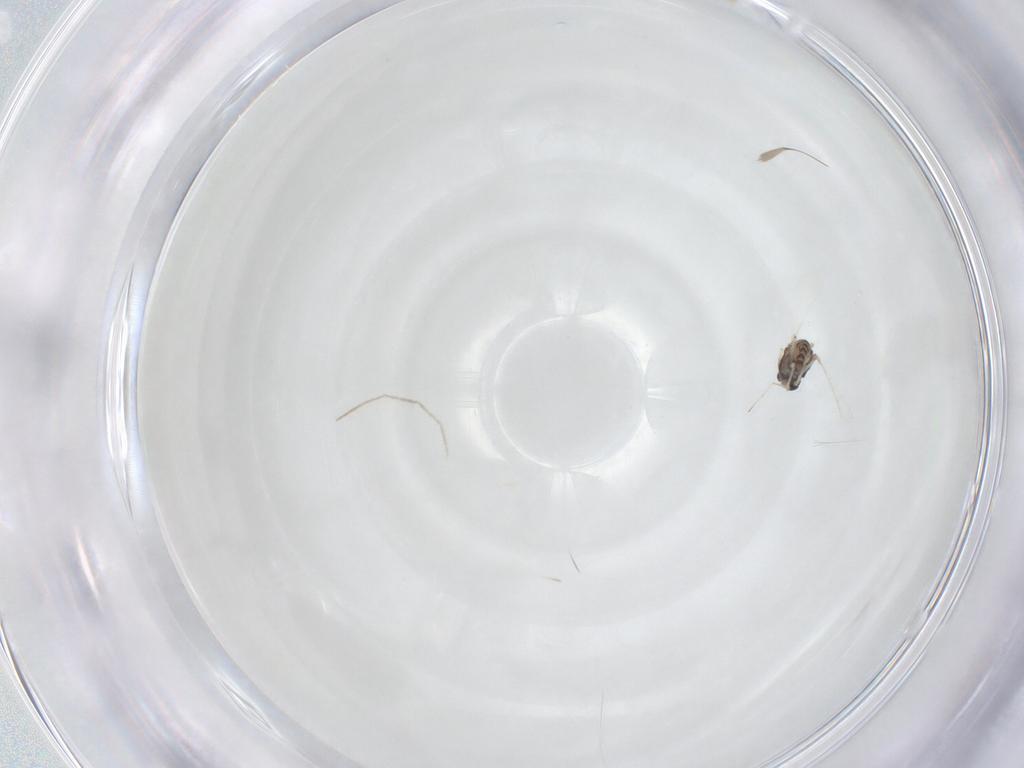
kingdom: Animalia
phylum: Arthropoda
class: Insecta
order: Diptera
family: Chironomidae
